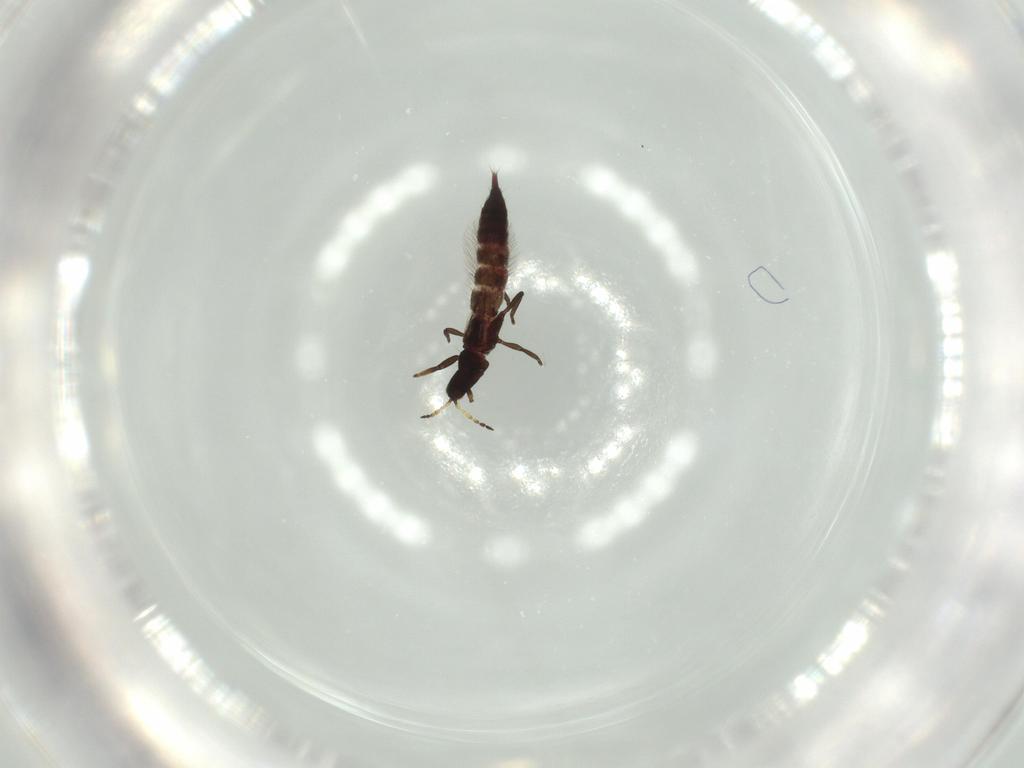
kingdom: Animalia
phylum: Arthropoda
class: Insecta
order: Thysanoptera
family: Phlaeothripidae
